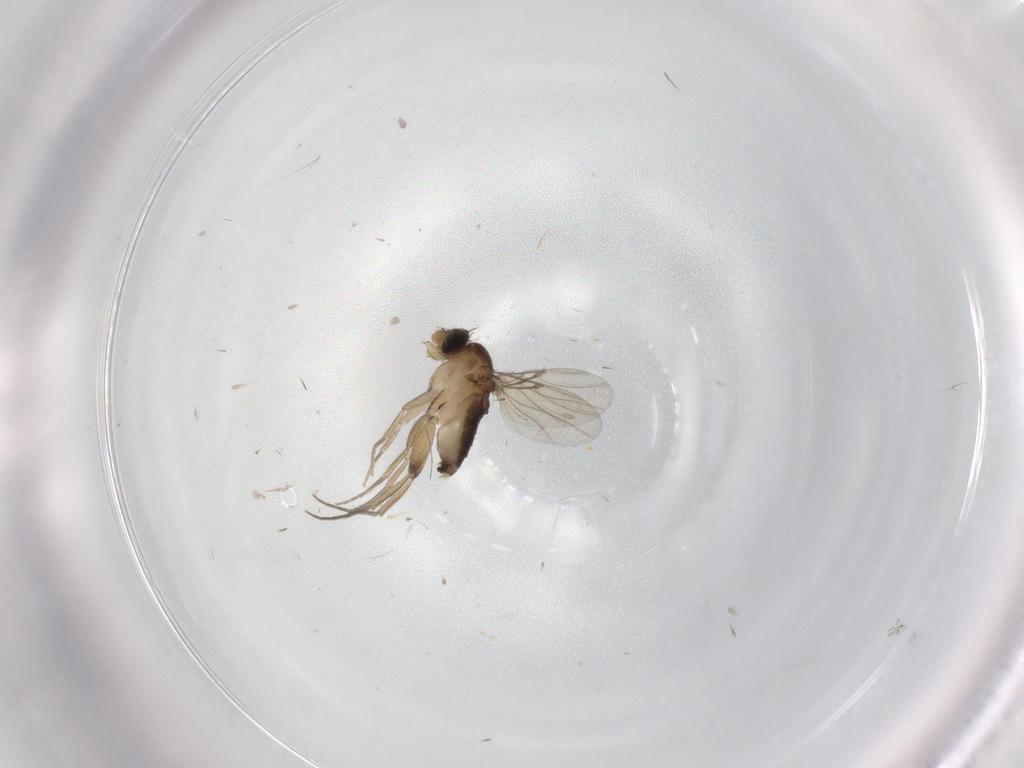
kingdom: Animalia
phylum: Arthropoda
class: Insecta
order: Diptera
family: Phoridae
